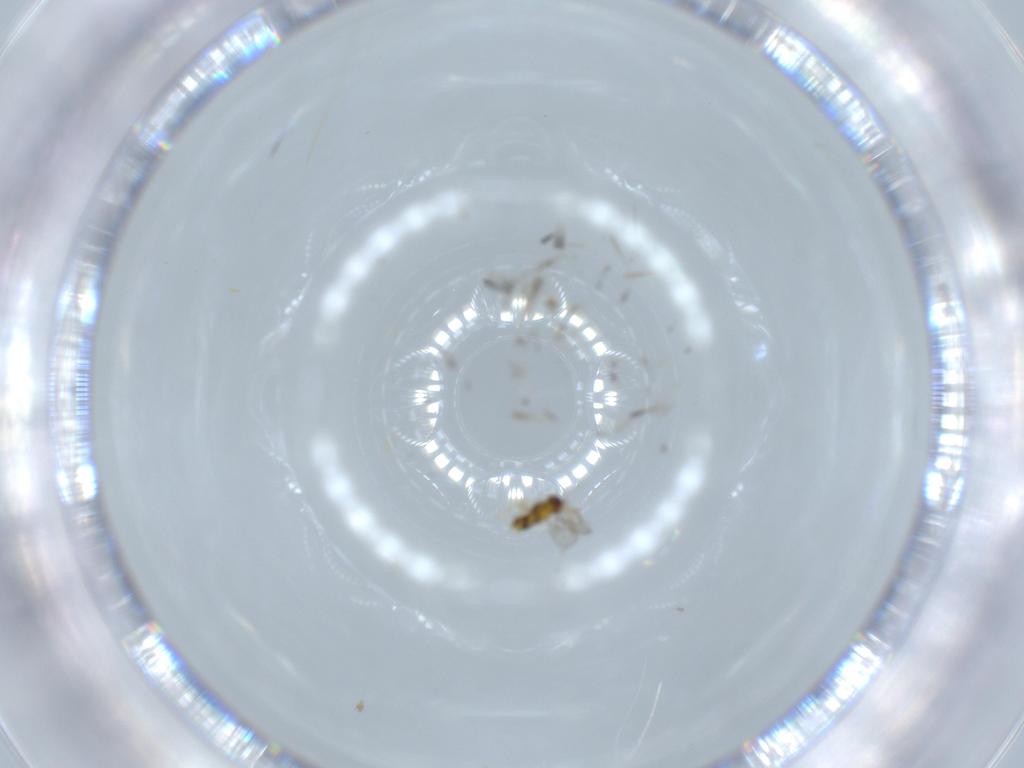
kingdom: Animalia
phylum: Arthropoda
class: Insecta
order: Hymenoptera
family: Aphelinidae
